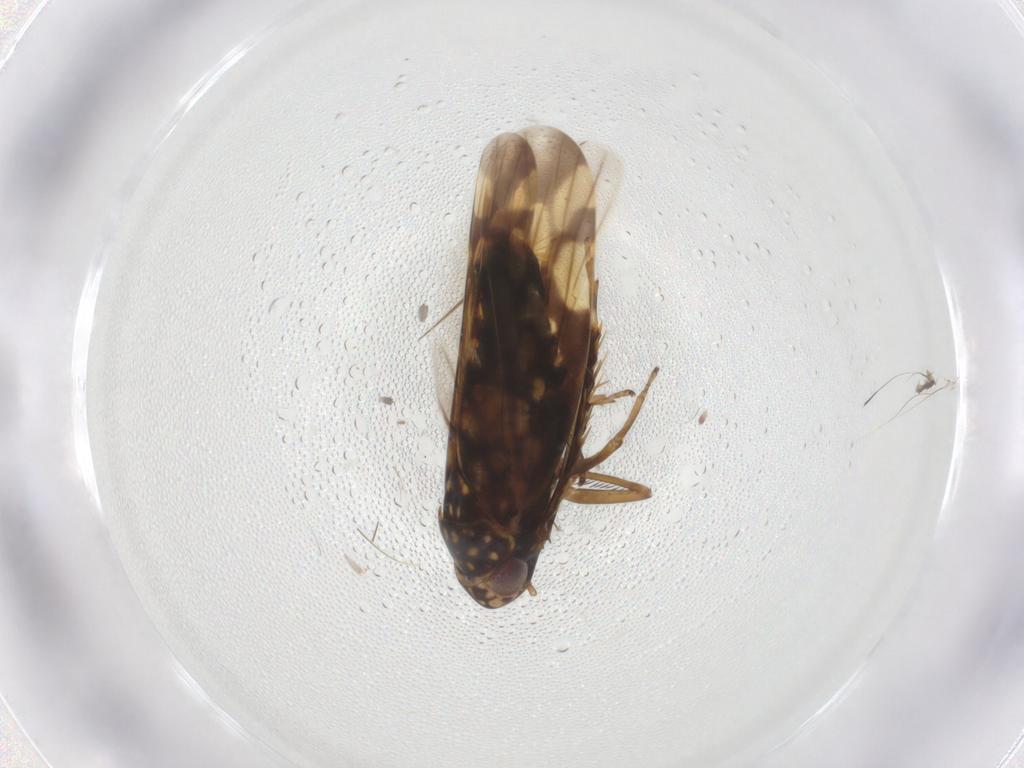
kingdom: Animalia
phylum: Arthropoda
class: Insecta
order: Hemiptera
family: Cicadellidae
